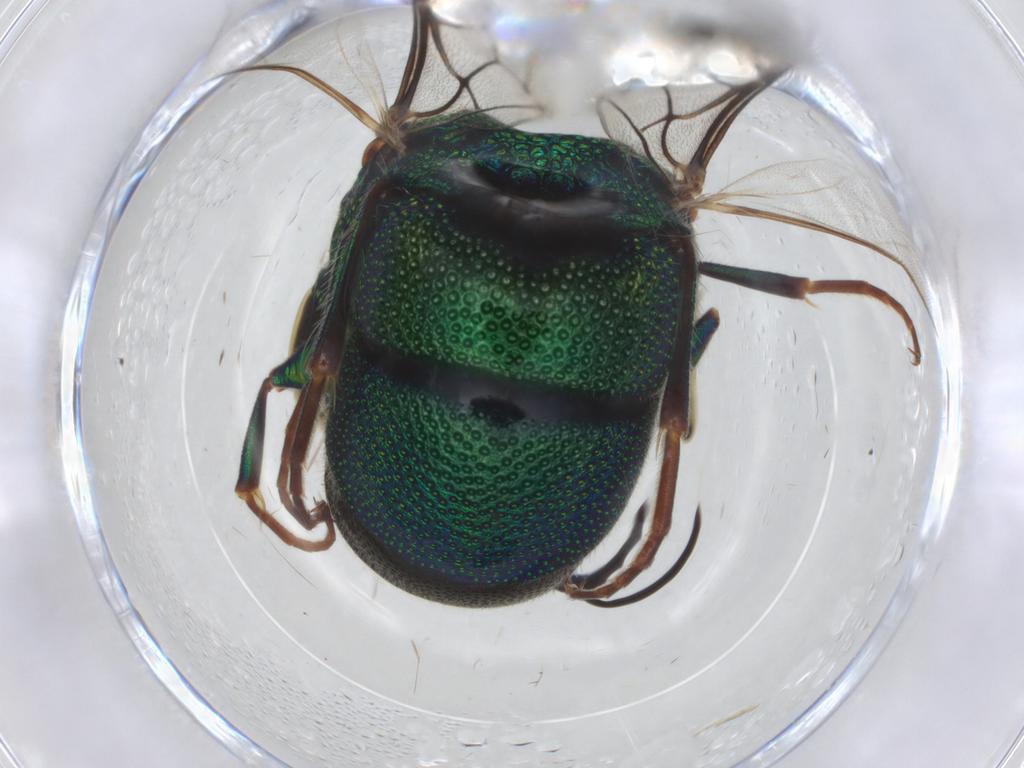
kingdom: Animalia
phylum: Arthropoda
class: Insecta
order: Hymenoptera
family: Chrysididae
